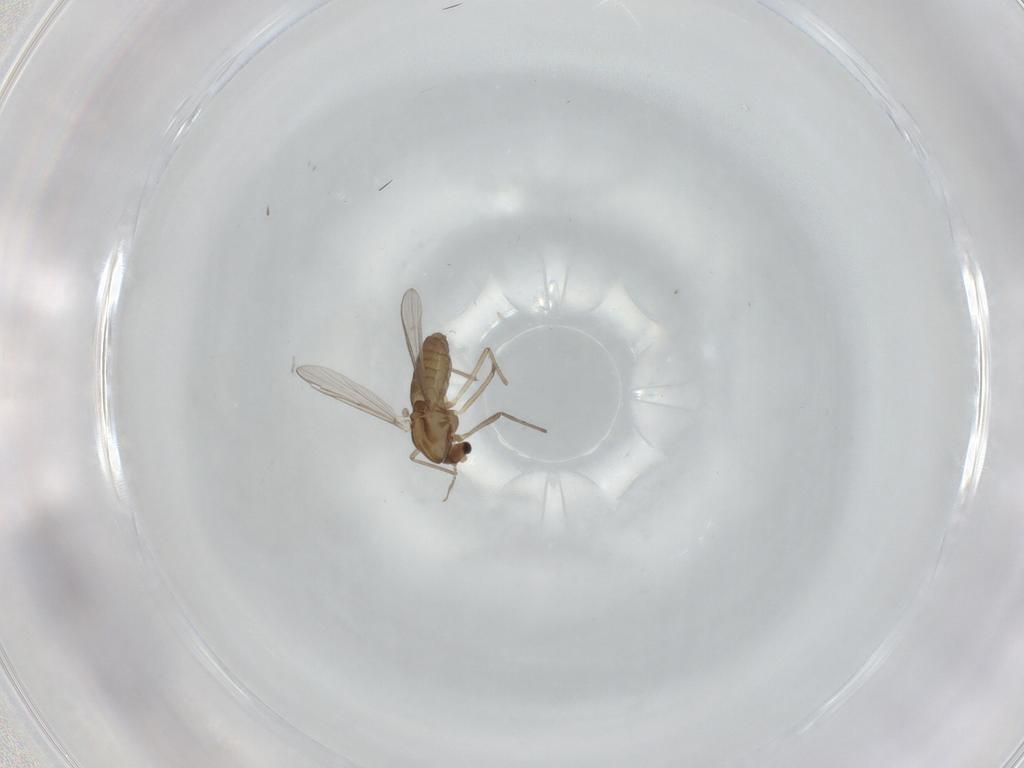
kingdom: Animalia
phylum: Arthropoda
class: Insecta
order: Diptera
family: Chironomidae
